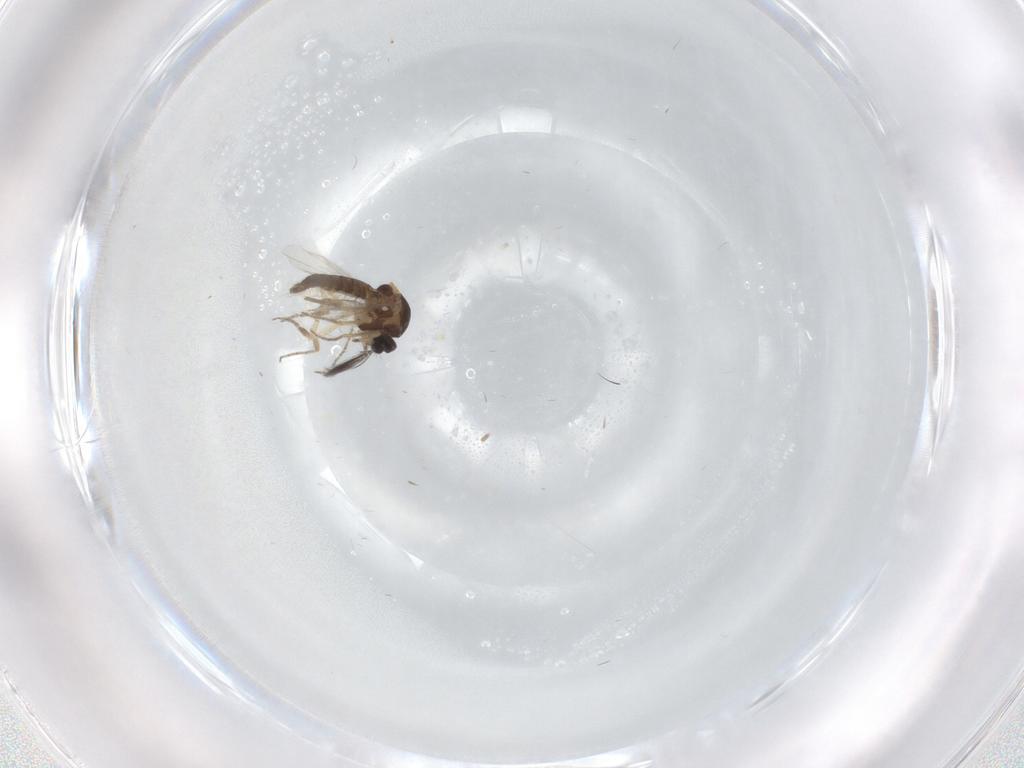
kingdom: Animalia
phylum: Arthropoda
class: Insecta
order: Diptera
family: Ceratopogonidae
